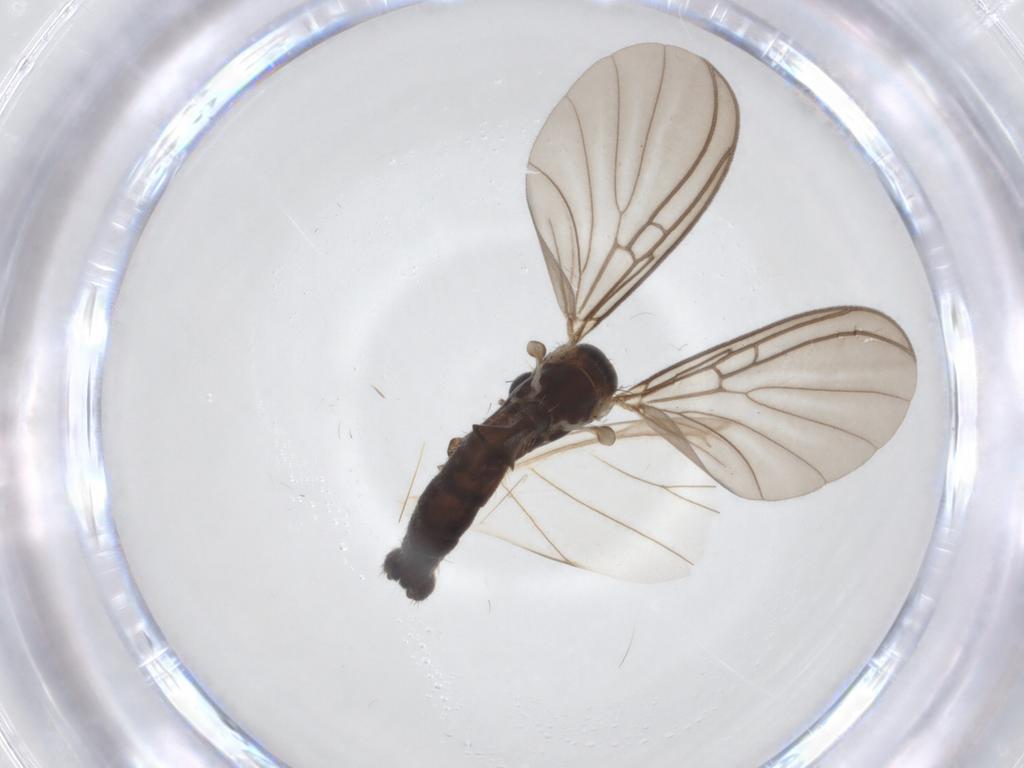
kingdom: Animalia
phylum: Arthropoda
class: Insecta
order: Diptera
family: Mycetophilidae
